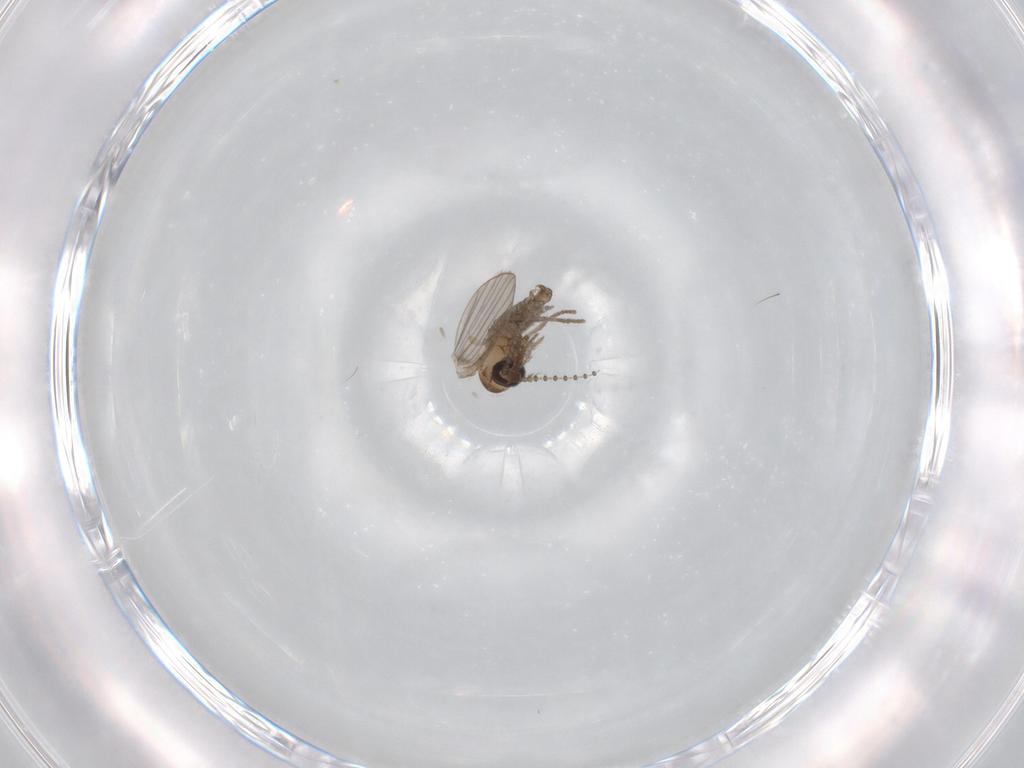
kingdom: Animalia
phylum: Arthropoda
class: Insecta
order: Diptera
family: Psychodidae
